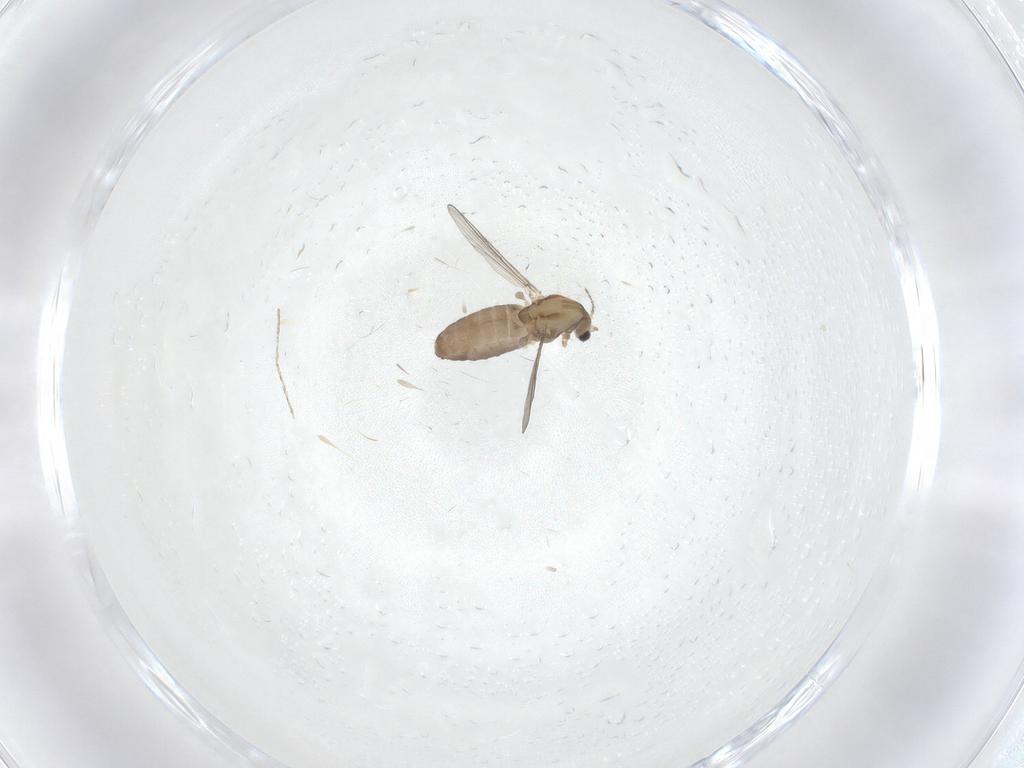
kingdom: Animalia
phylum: Arthropoda
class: Insecta
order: Diptera
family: Chironomidae
